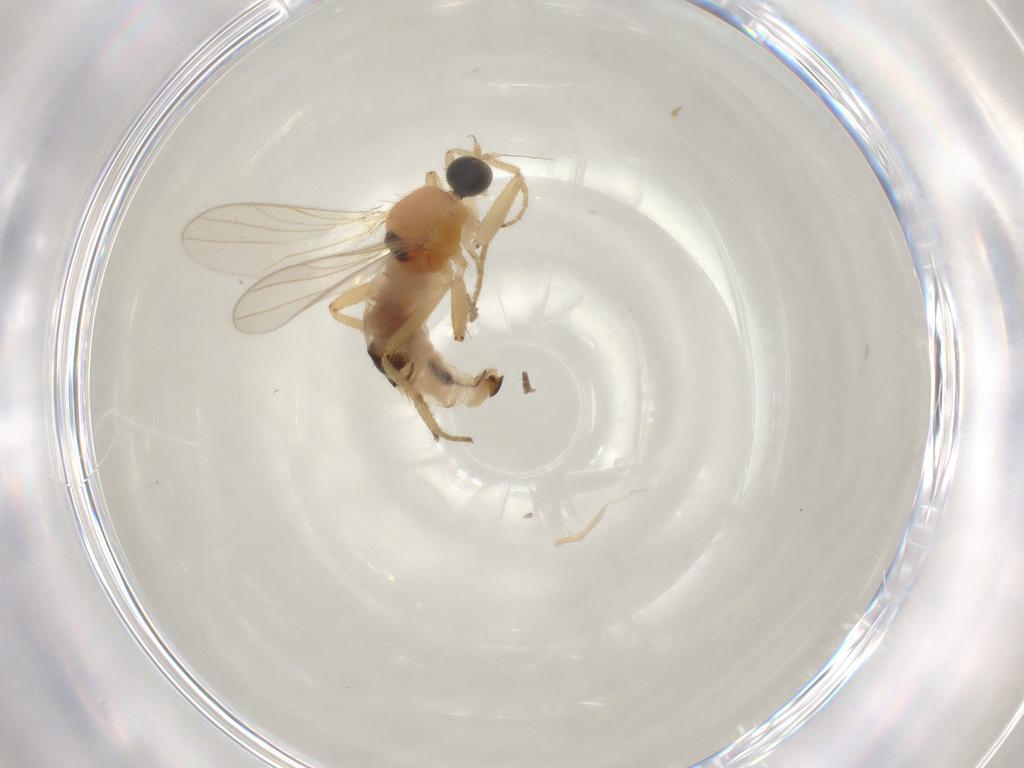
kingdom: Animalia
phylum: Arthropoda
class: Insecta
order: Diptera
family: Hybotidae
